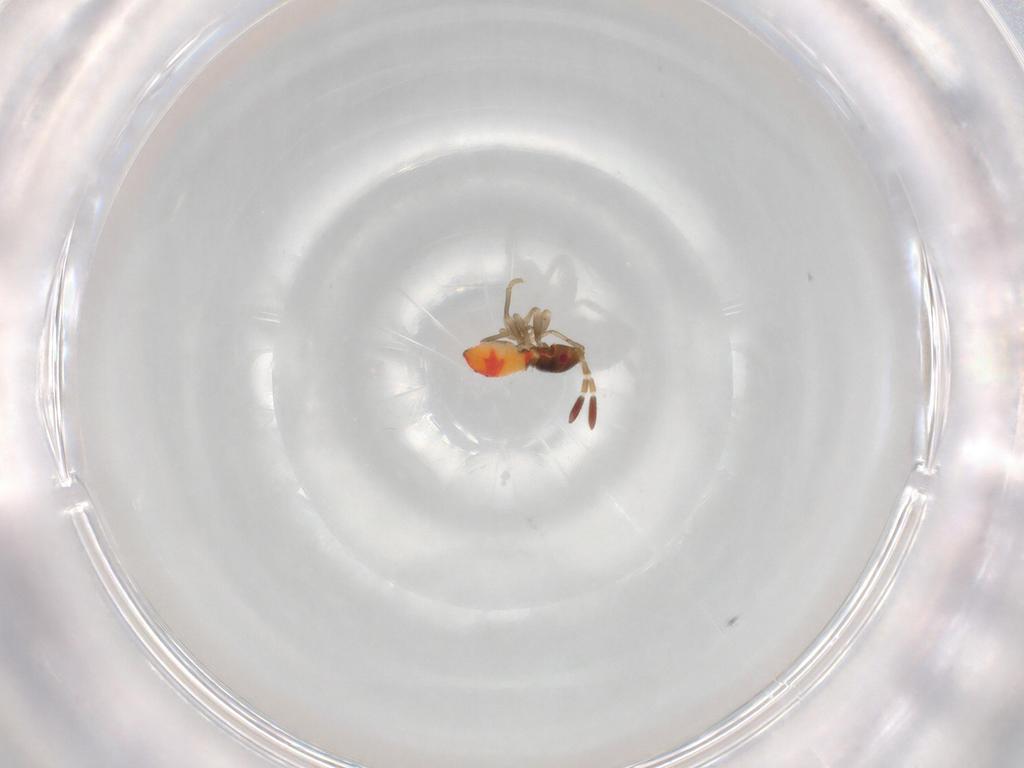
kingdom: Animalia
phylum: Arthropoda
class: Insecta
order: Hemiptera
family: Rhyparochromidae
